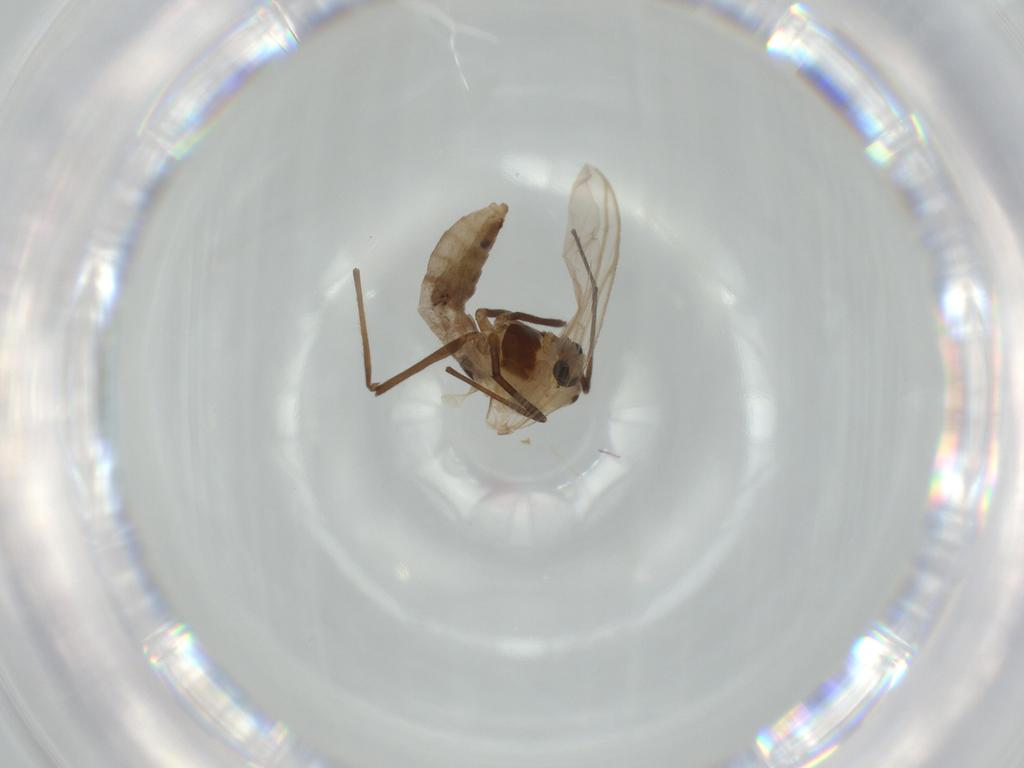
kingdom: Animalia
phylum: Arthropoda
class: Insecta
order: Diptera
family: Chironomidae
